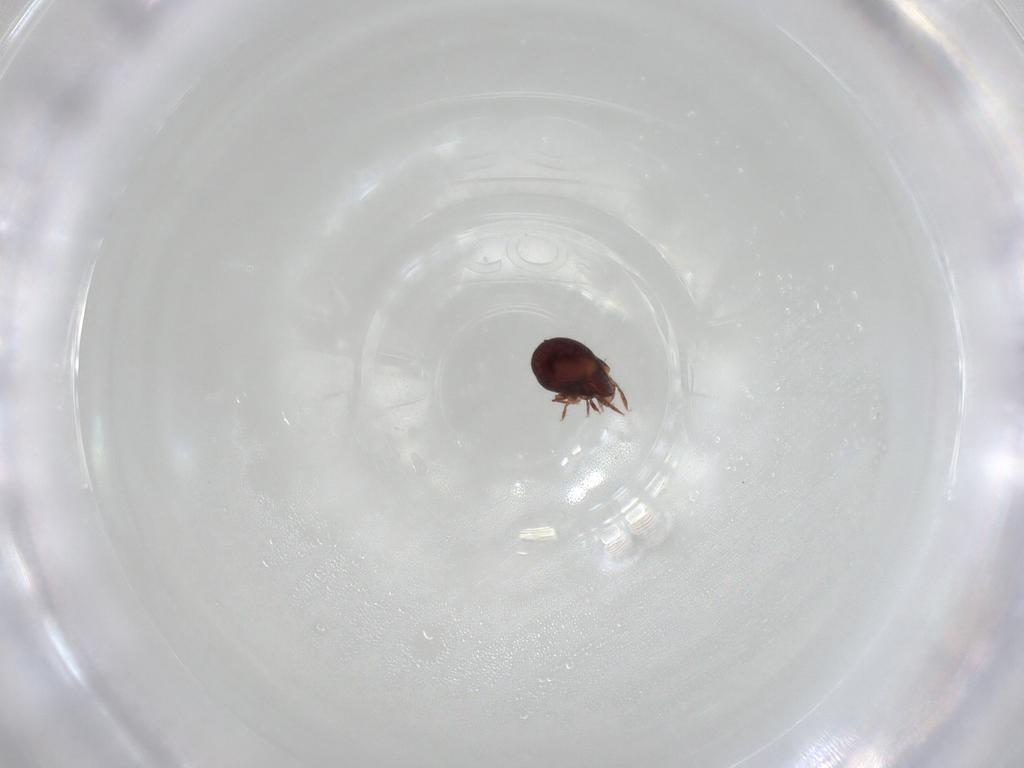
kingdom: Animalia
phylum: Arthropoda
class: Arachnida
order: Sarcoptiformes
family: Humerobatidae
